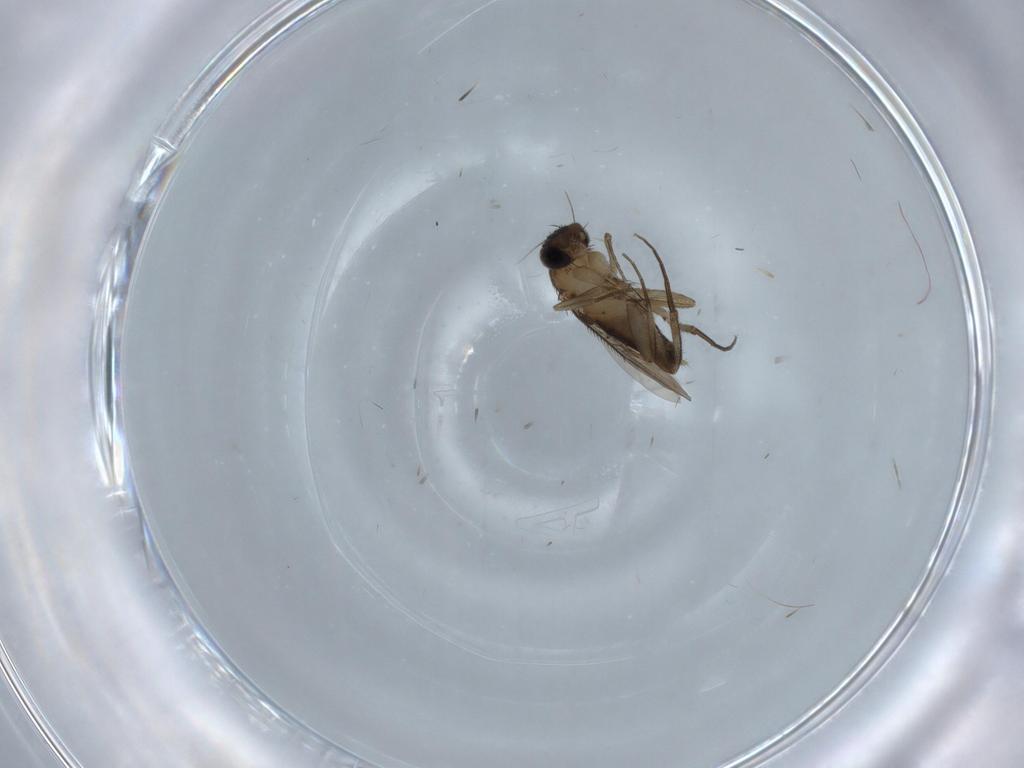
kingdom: Animalia
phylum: Arthropoda
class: Insecta
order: Diptera
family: Phoridae
